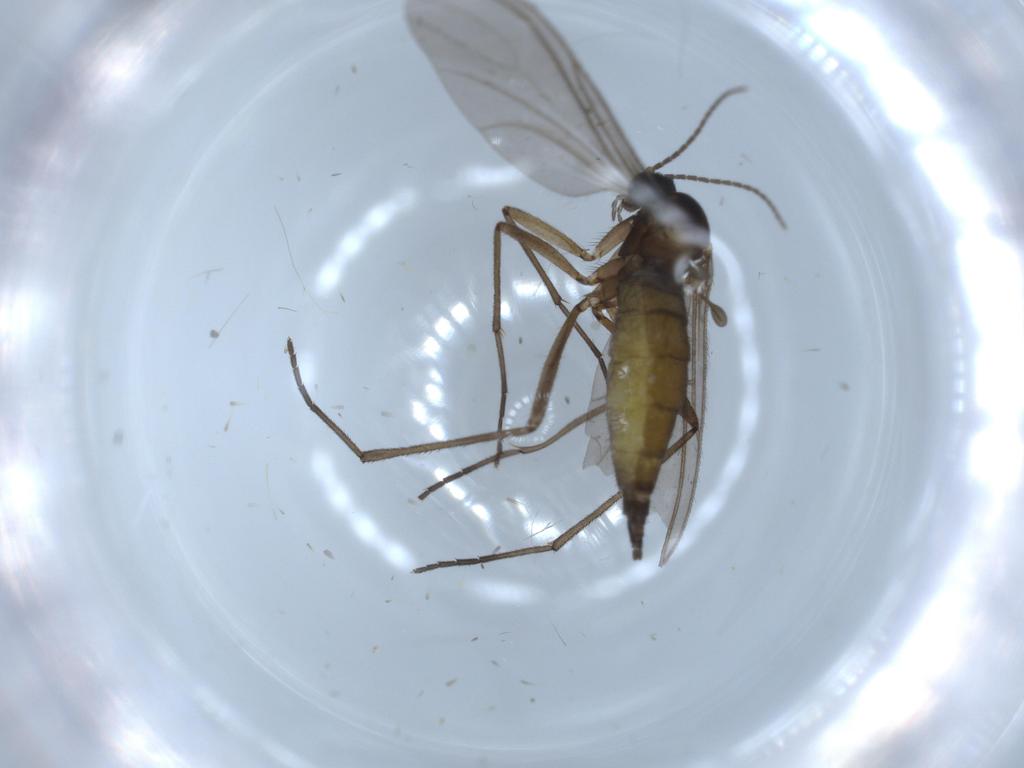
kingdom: Animalia
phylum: Arthropoda
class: Insecta
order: Diptera
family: Sciaridae
